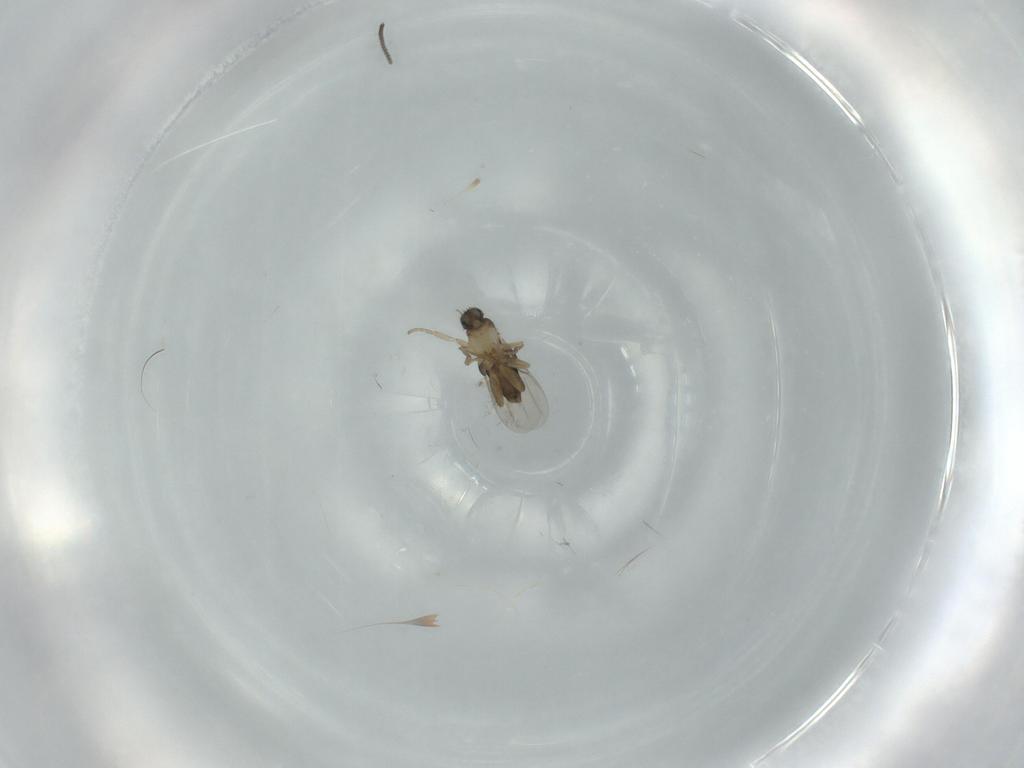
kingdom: Animalia
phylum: Arthropoda
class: Insecta
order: Diptera
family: Phoridae
